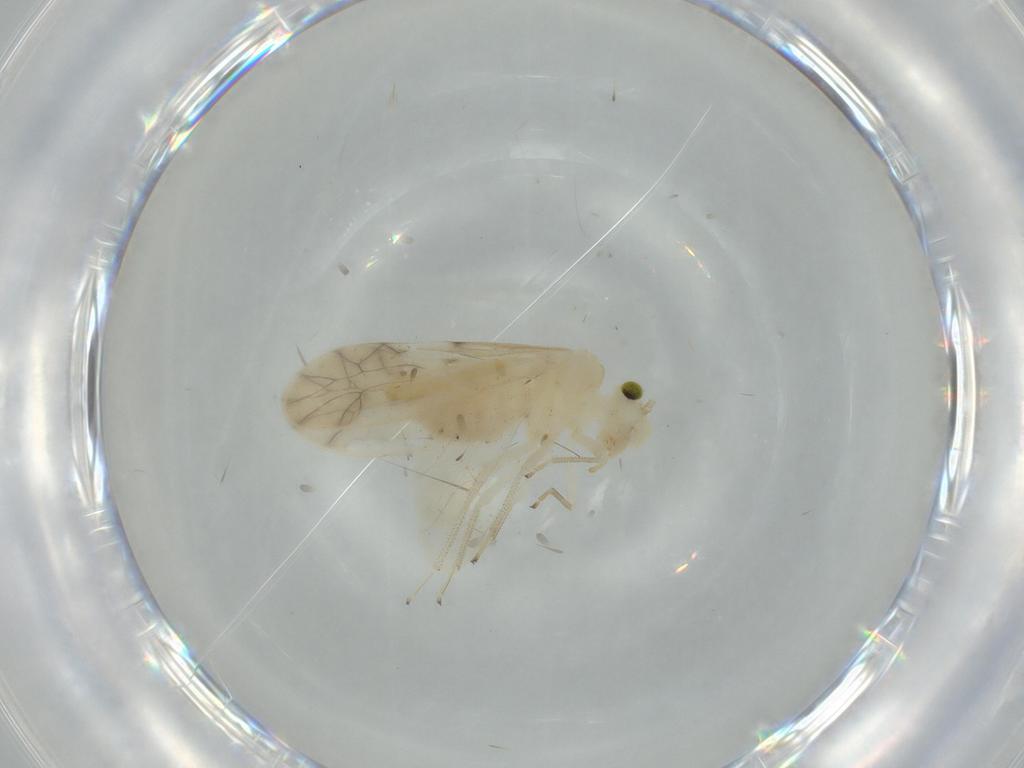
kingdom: Animalia
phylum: Arthropoda
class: Insecta
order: Psocodea
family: Caeciliusidae
